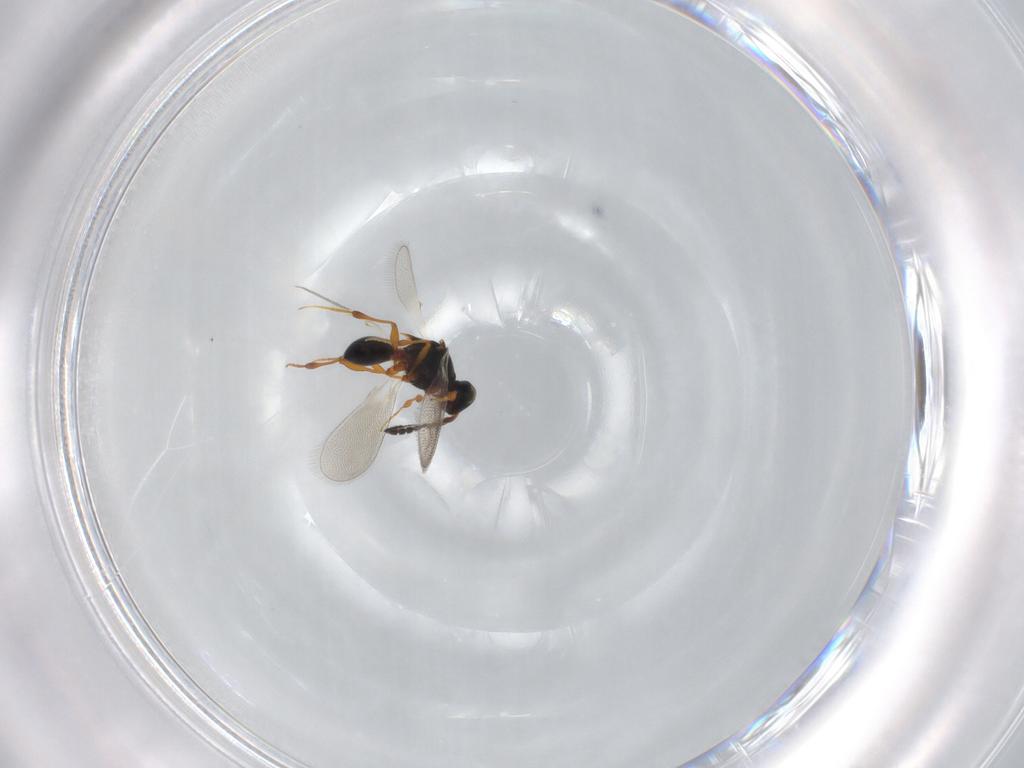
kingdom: Animalia
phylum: Arthropoda
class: Insecta
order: Hymenoptera
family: Platygastridae
